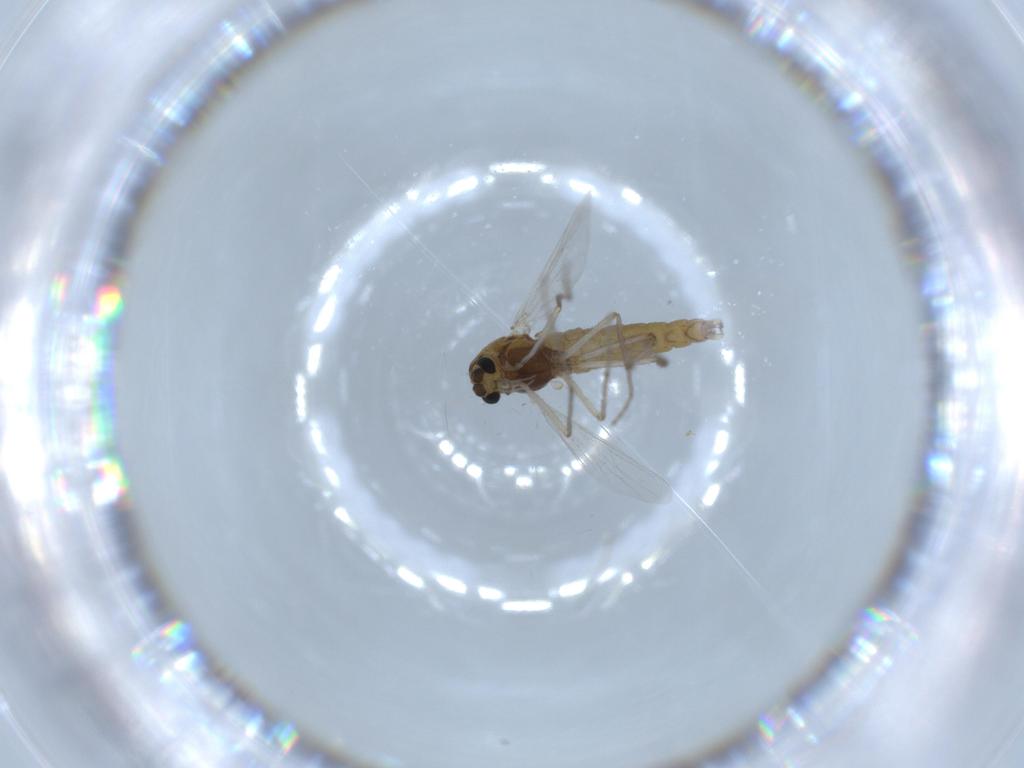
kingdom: Animalia
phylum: Arthropoda
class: Insecta
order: Diptera
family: Chironomidae
